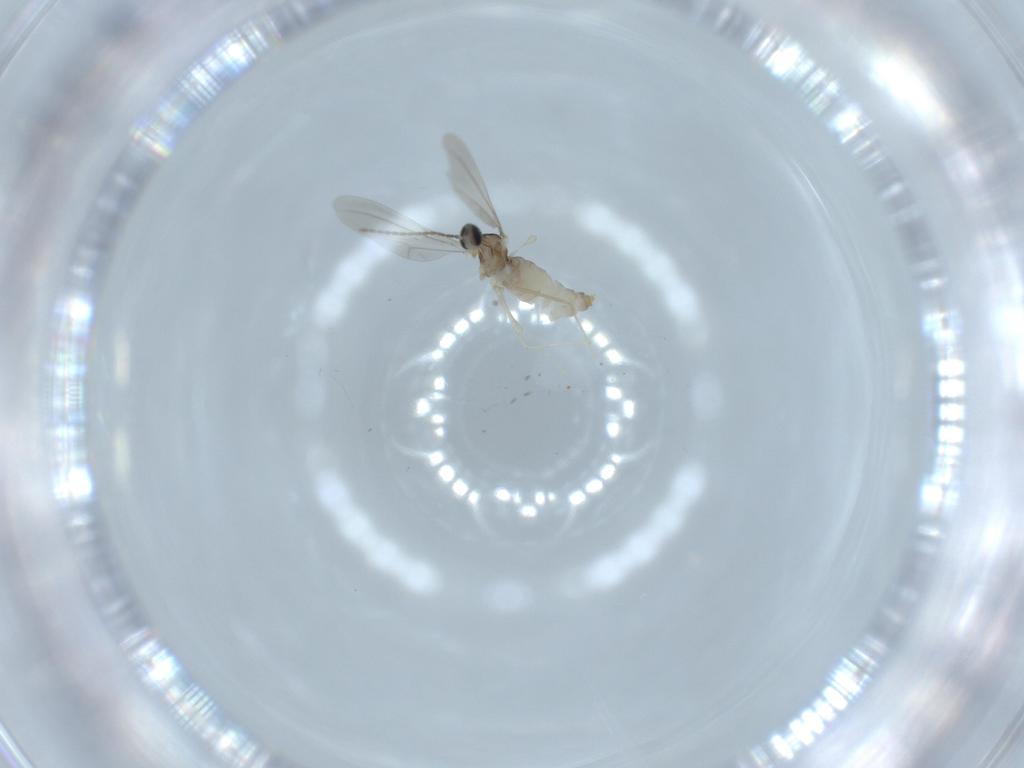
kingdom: Animalia
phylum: Arthropoda
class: Insecta
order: Diptera
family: Cecidomyiidae
